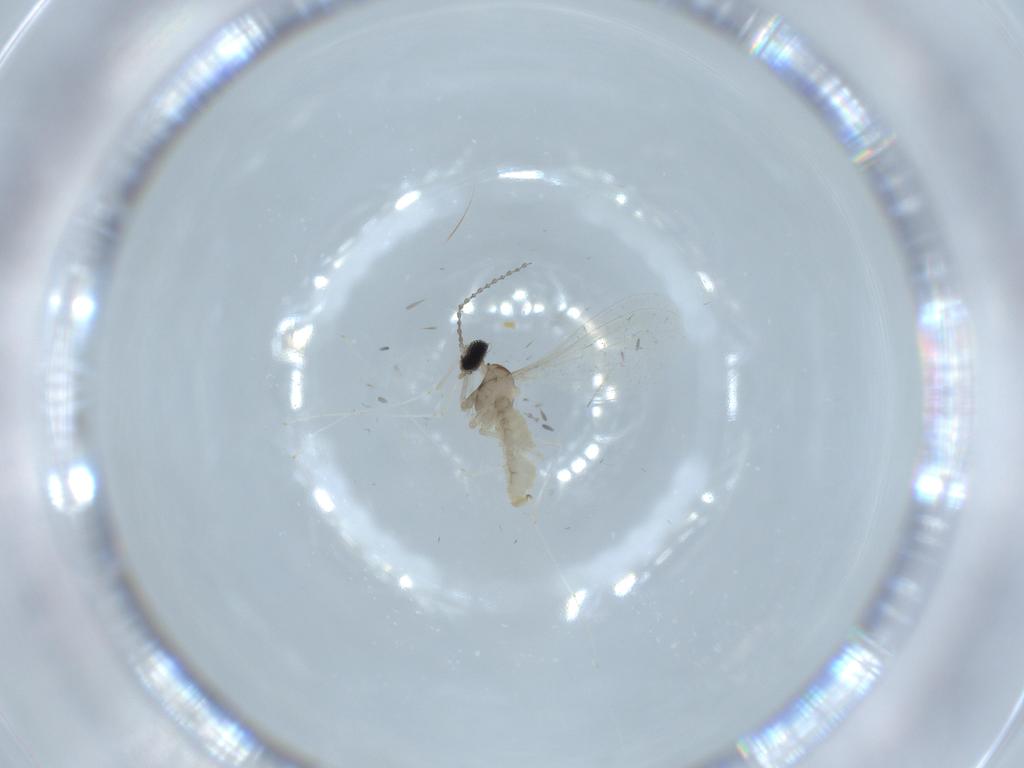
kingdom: Animalia
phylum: Arthropoda
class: Insecta
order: Diptera
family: Cecidomyiidae
